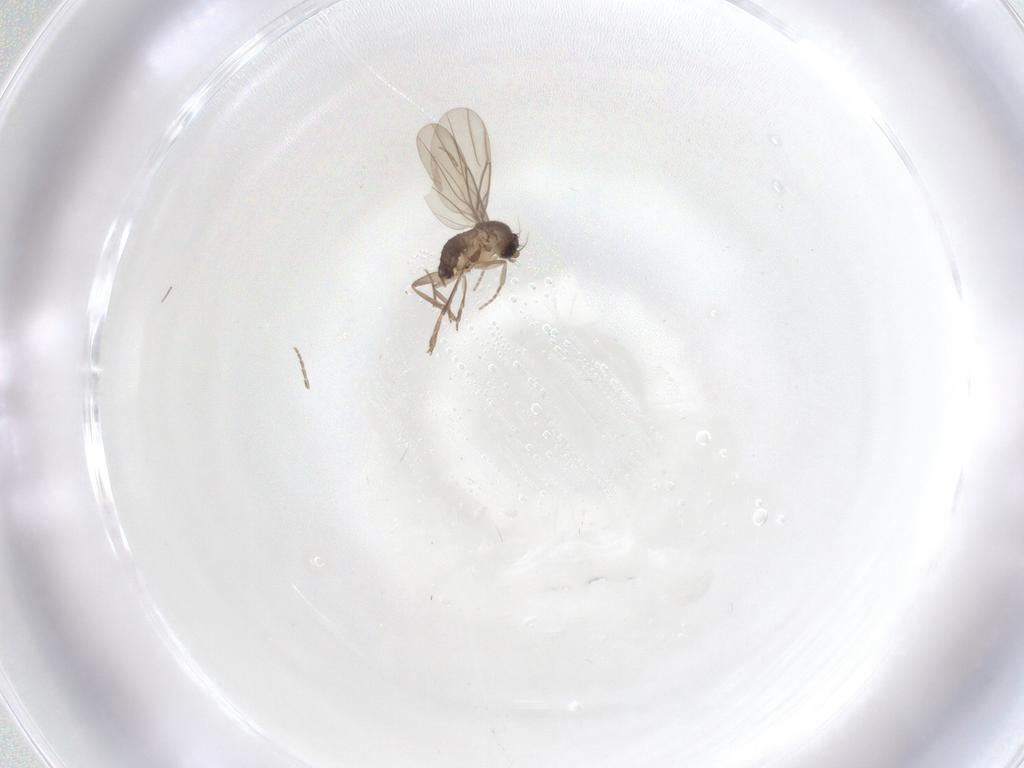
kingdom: Animalia
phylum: Arthropoda
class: Insecta
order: Diptera
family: Phoridae
